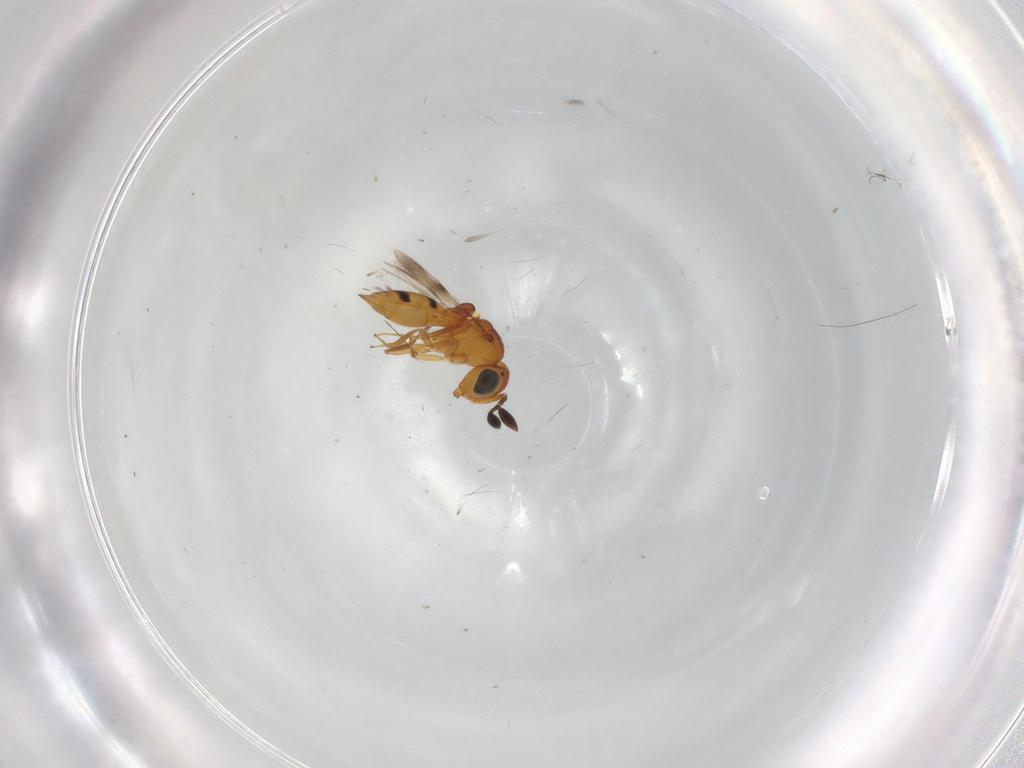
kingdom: Animalia
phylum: Arthropoda
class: Insecta
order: Hymenoptera
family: Scelionidae
